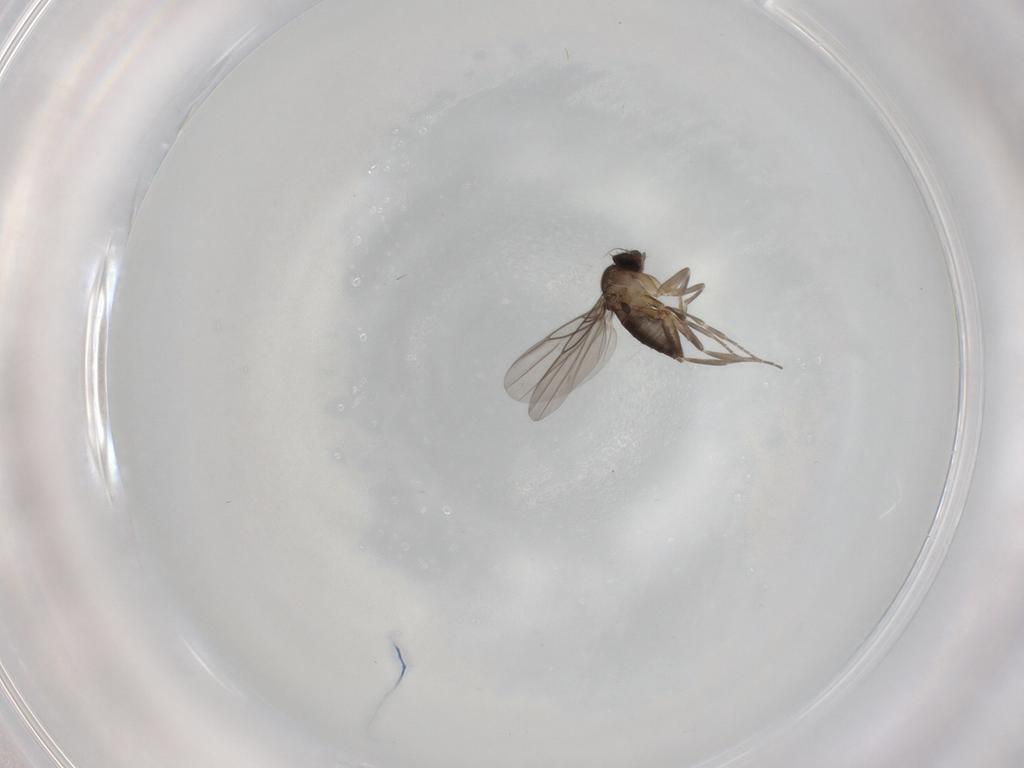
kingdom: Animalia
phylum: Arthropoda
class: Insecta
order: Diptera
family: Phoridae
